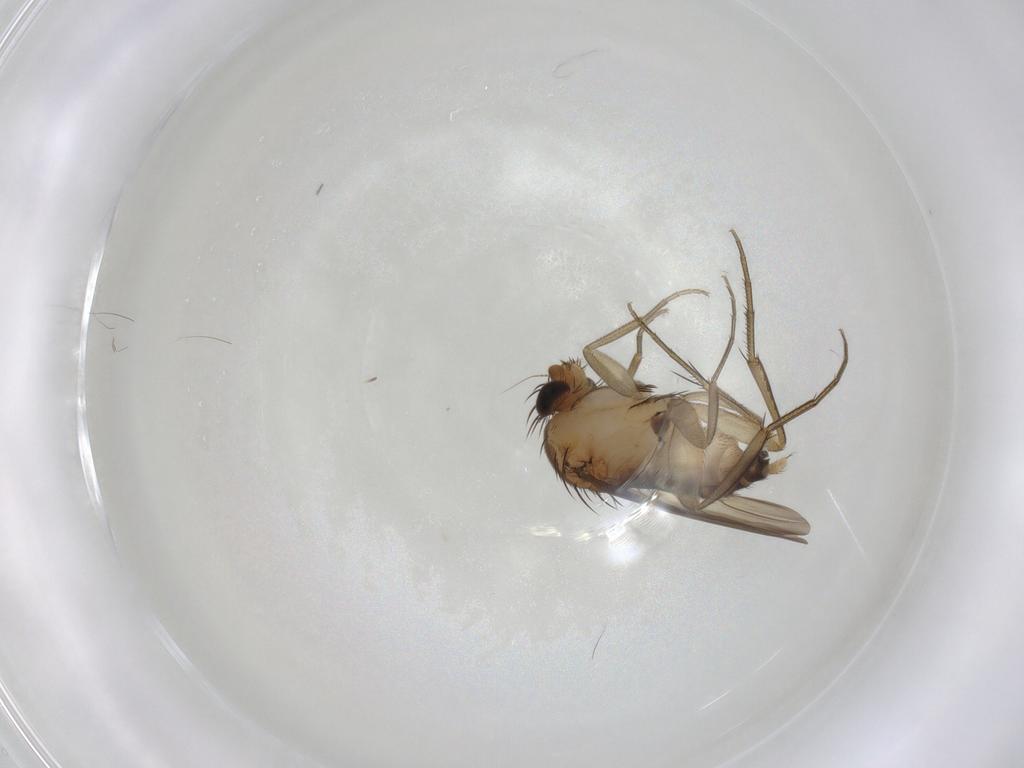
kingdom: Animalia
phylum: Arthropoda
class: Insecta
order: Diptera
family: Phoridae
